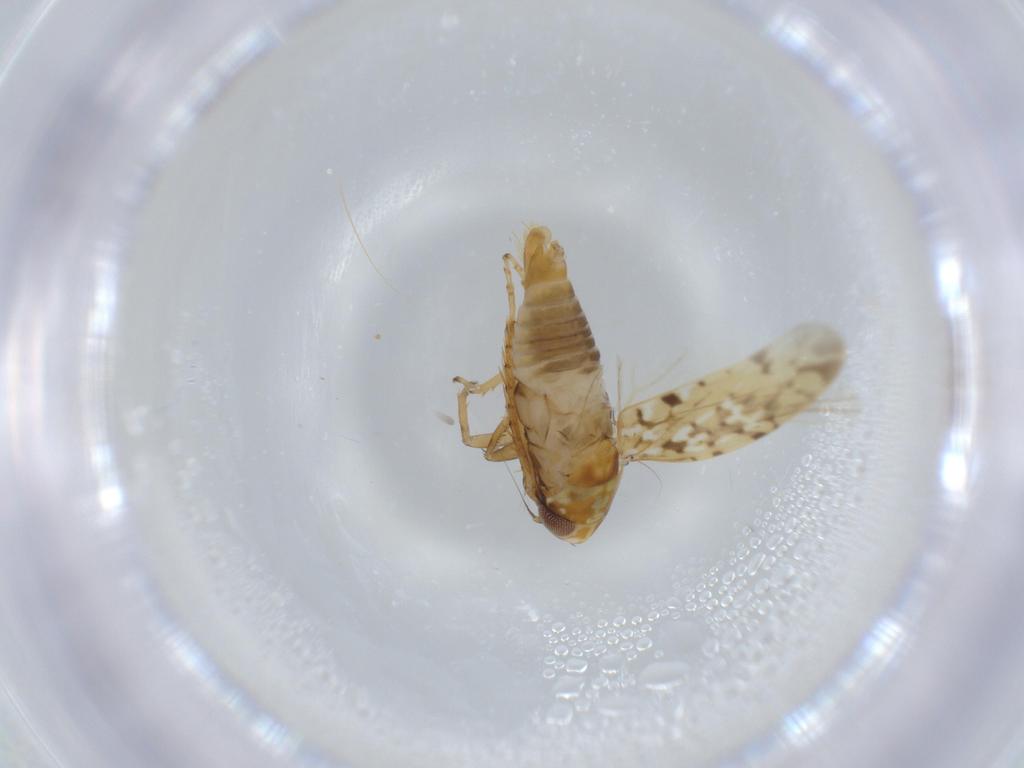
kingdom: Animalia
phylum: Arthropoda
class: Insecta
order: Hemiptera
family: Cicadellidae
